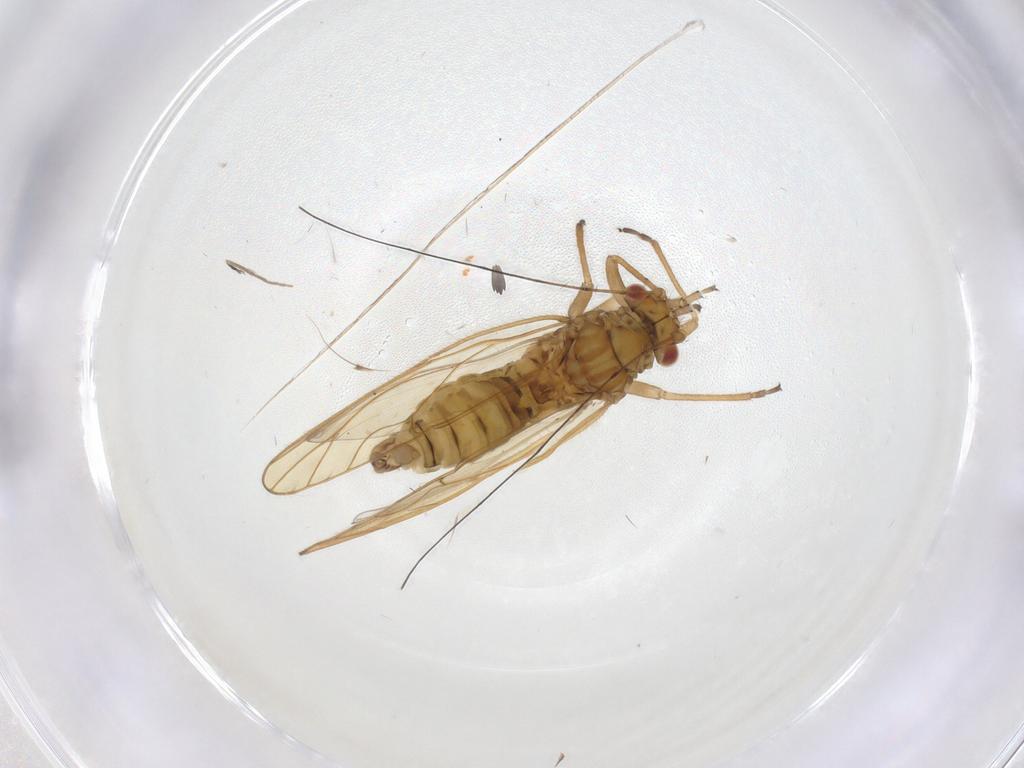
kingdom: Animalia
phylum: Arthropoda
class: Insecta
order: Hemiptera
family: Psyllidae
